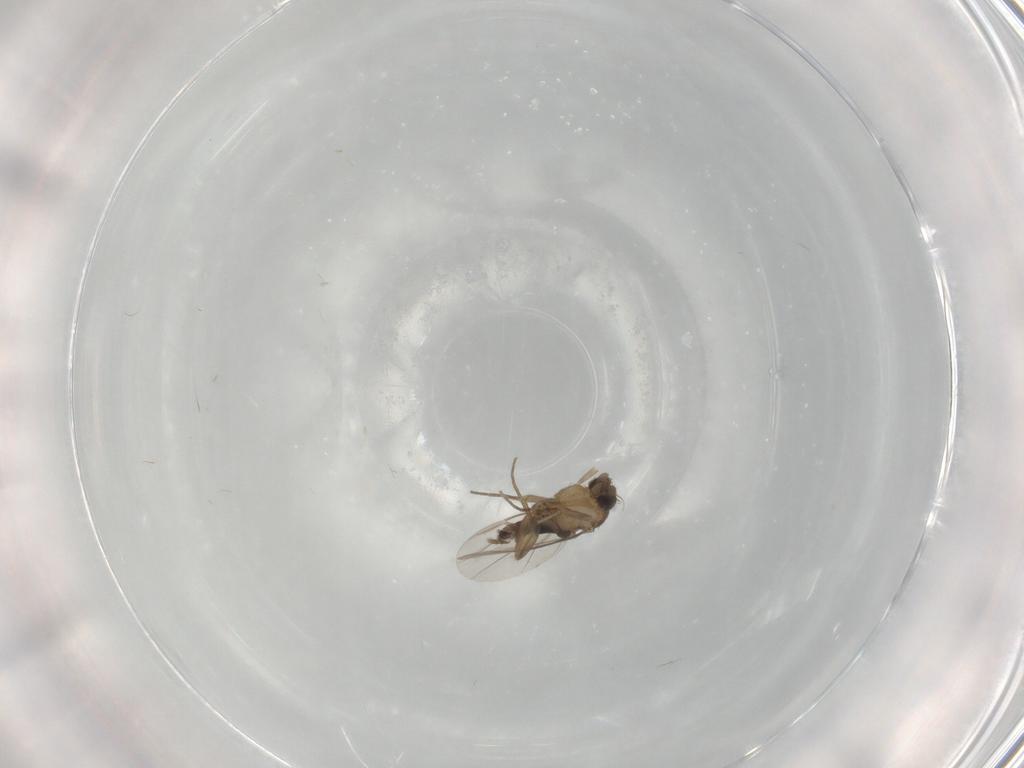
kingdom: Animalia
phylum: Arthropoda
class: Insecta
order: Diptera
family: Phoridae
